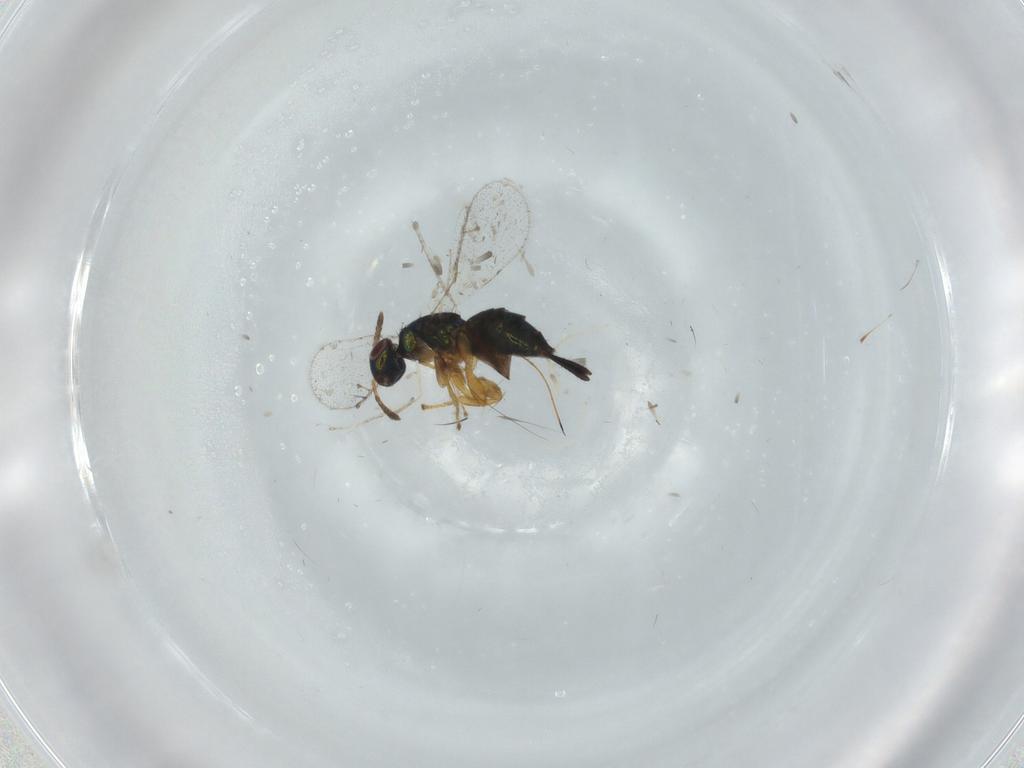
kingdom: Animalia
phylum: Arthropoda
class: Insecta
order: Hymenoptera
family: Torymidae
